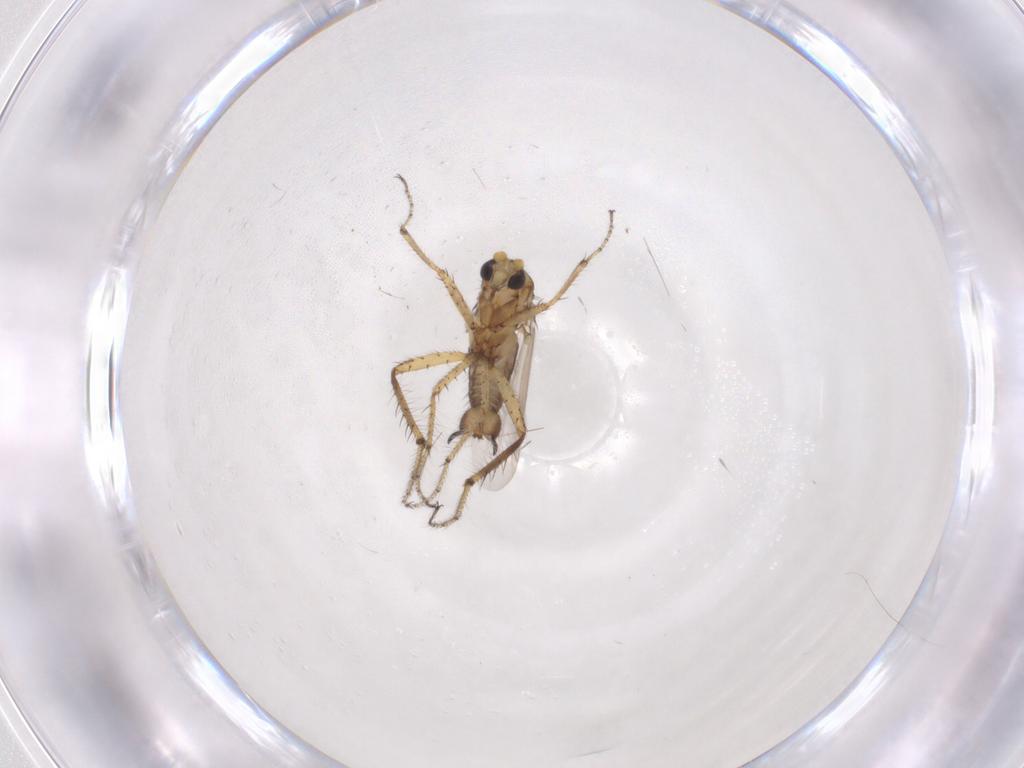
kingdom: Animalia
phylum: Arthropoda
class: Insecta
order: Diptera
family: Ceratopogonidae
